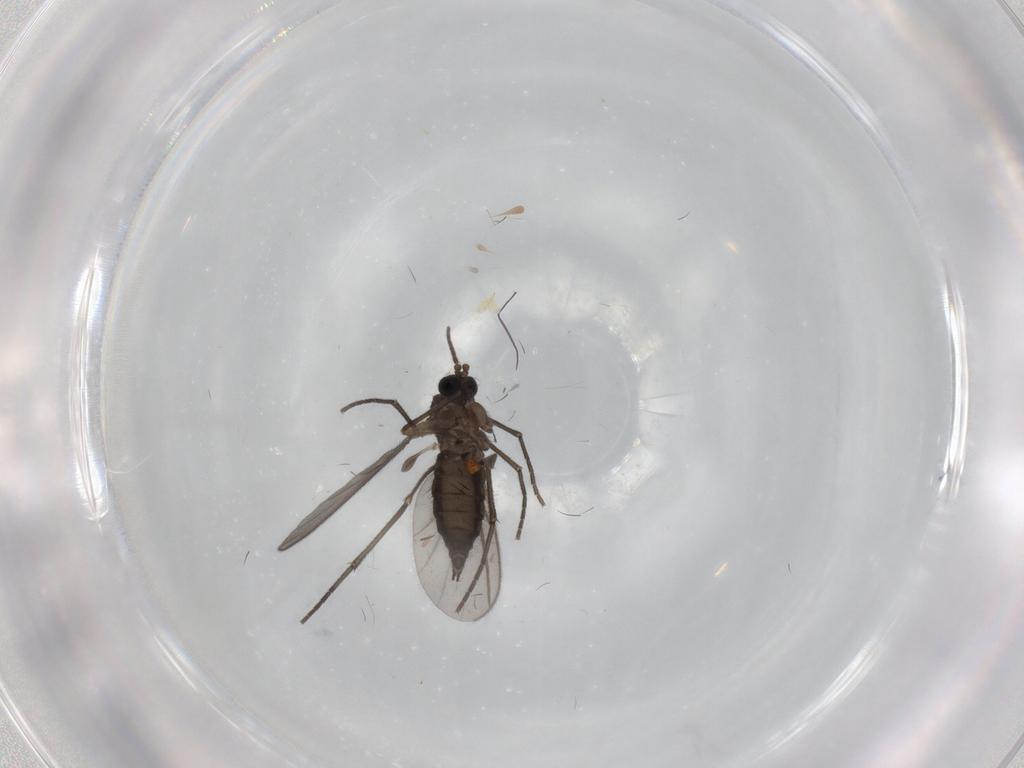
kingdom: Animalia
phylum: Arthropoda
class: Insecta
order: Diptera
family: Sciaridae
